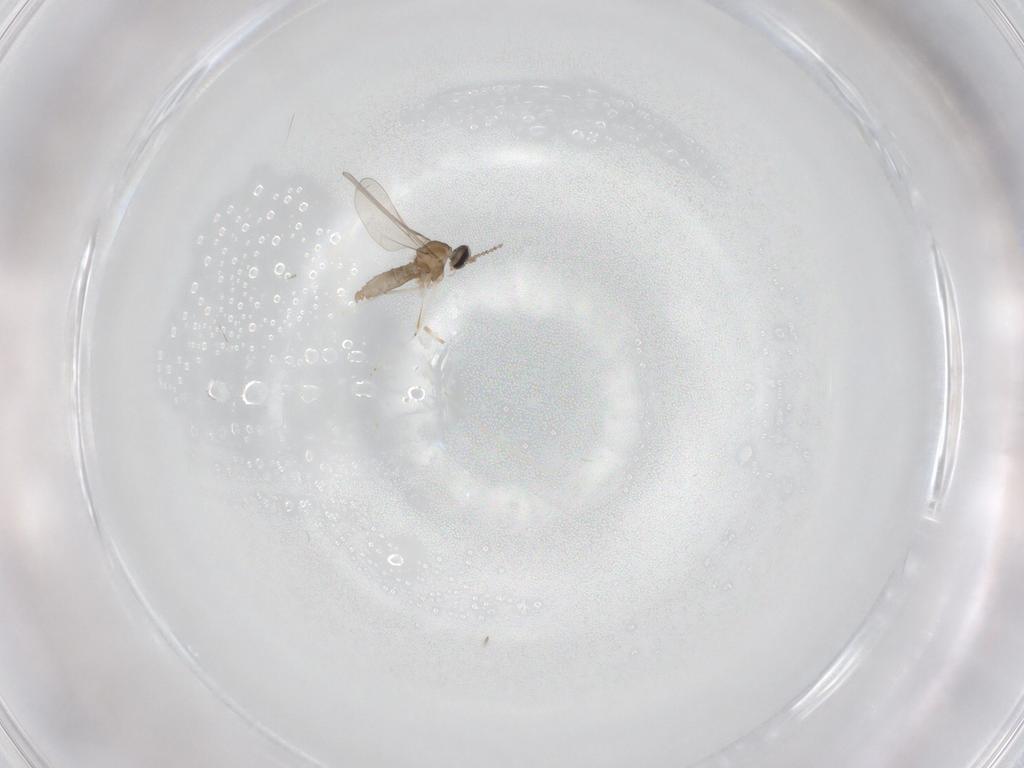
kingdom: Animalia
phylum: Arthropoda
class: Insecta
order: Diptera
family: Cecidomyiidae
